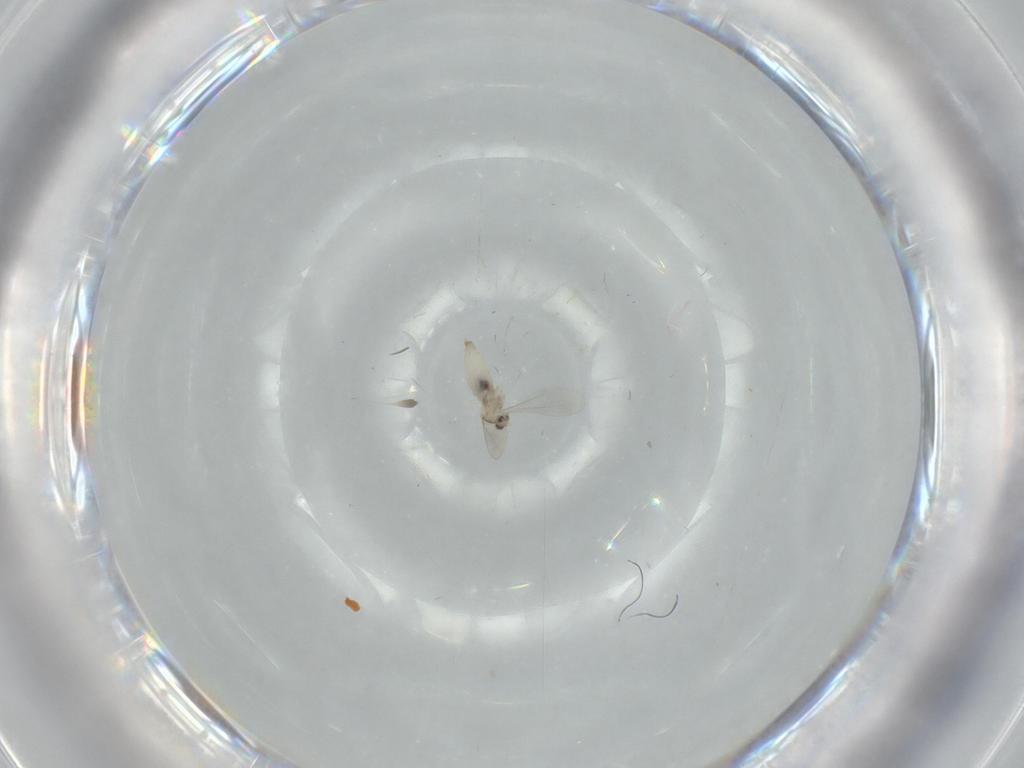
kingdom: Animalia
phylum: Arthropoda
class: Insecta
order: Diptera
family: Cecidomyiidae
